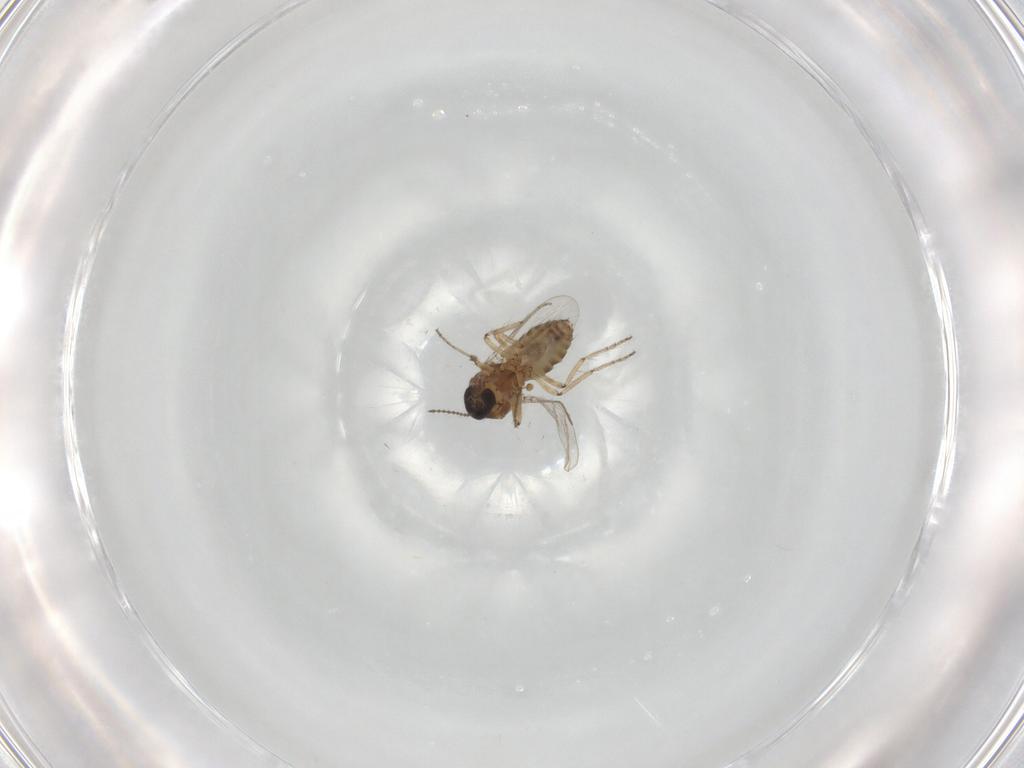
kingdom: Animalia
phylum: Arthropoda
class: Insecta
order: Diptera
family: Ceratopogonidae
